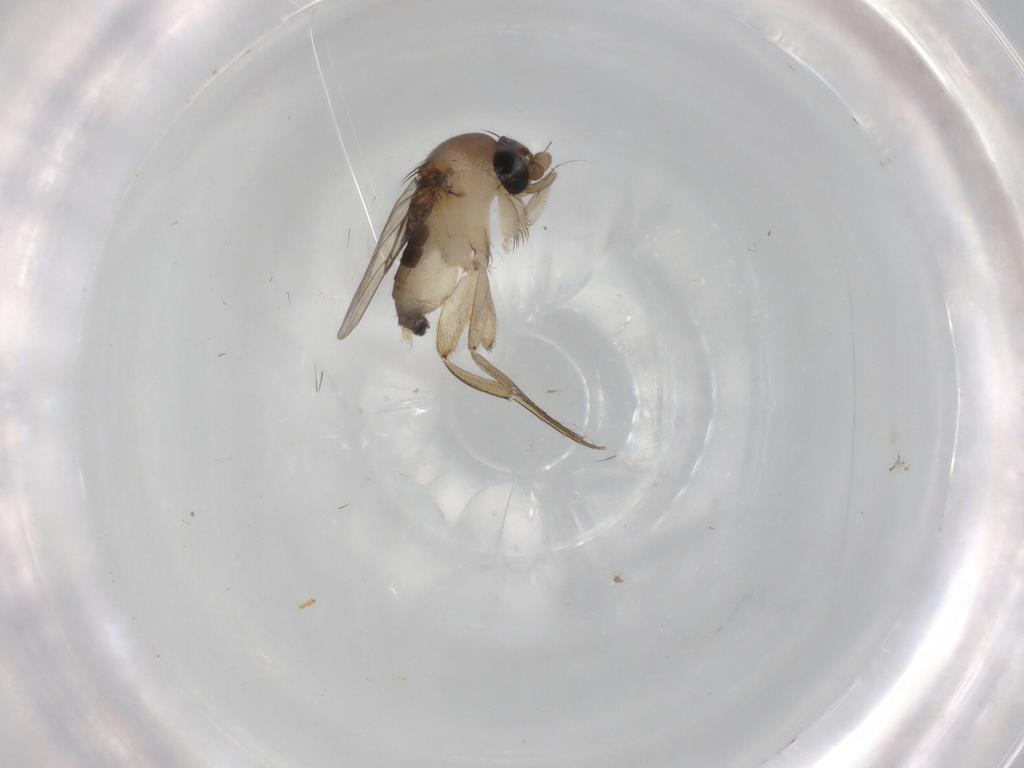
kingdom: Animalia
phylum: Arthropoda
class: Insecta
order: Diptera
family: Phoridae
